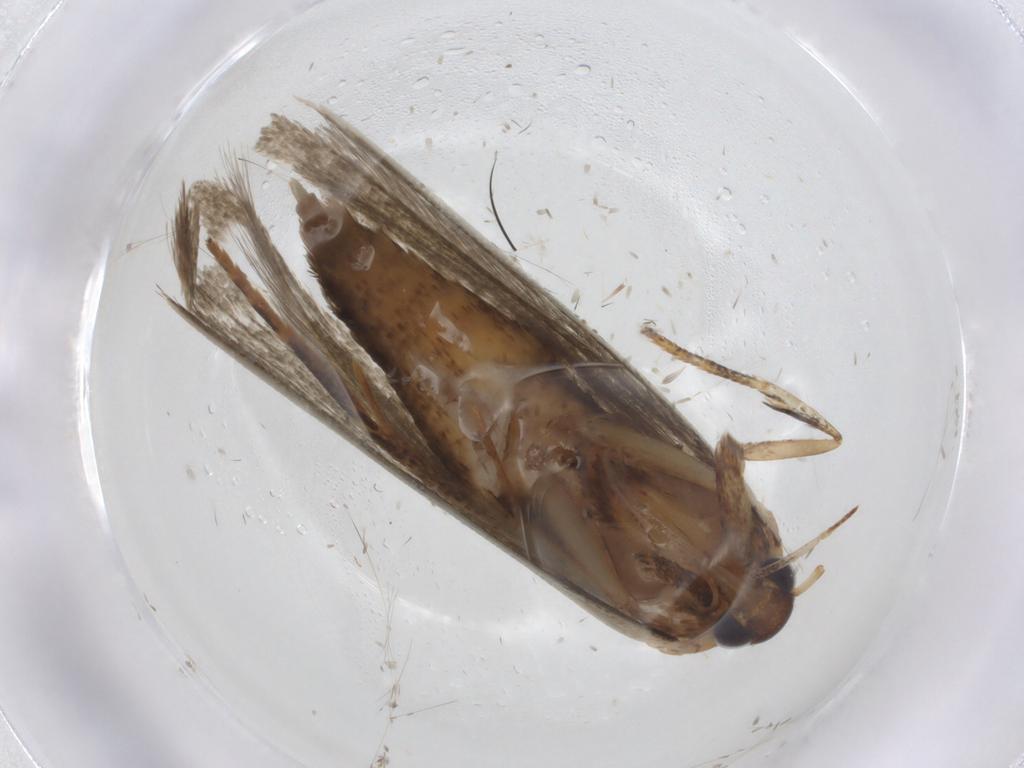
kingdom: Animalia
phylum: Arthropoda
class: Insecta
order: Lepidoptera
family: Blastobasidae
